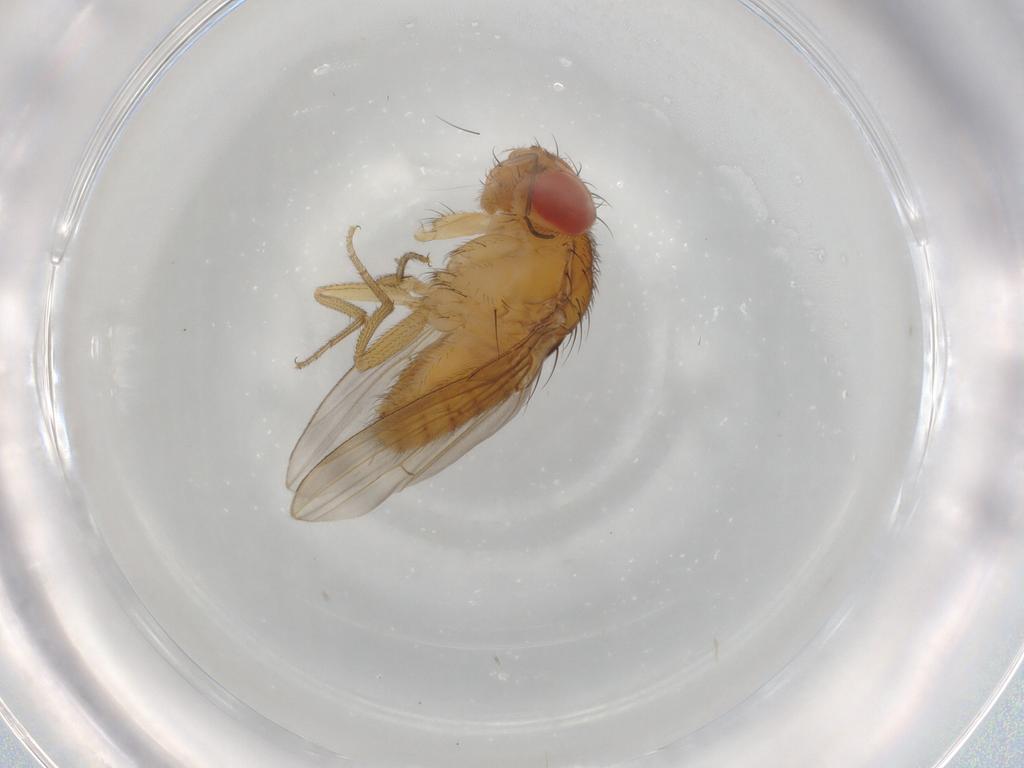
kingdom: Animalia
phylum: Arthropoda
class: Insecta
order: Diptera
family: Drosophilidae
